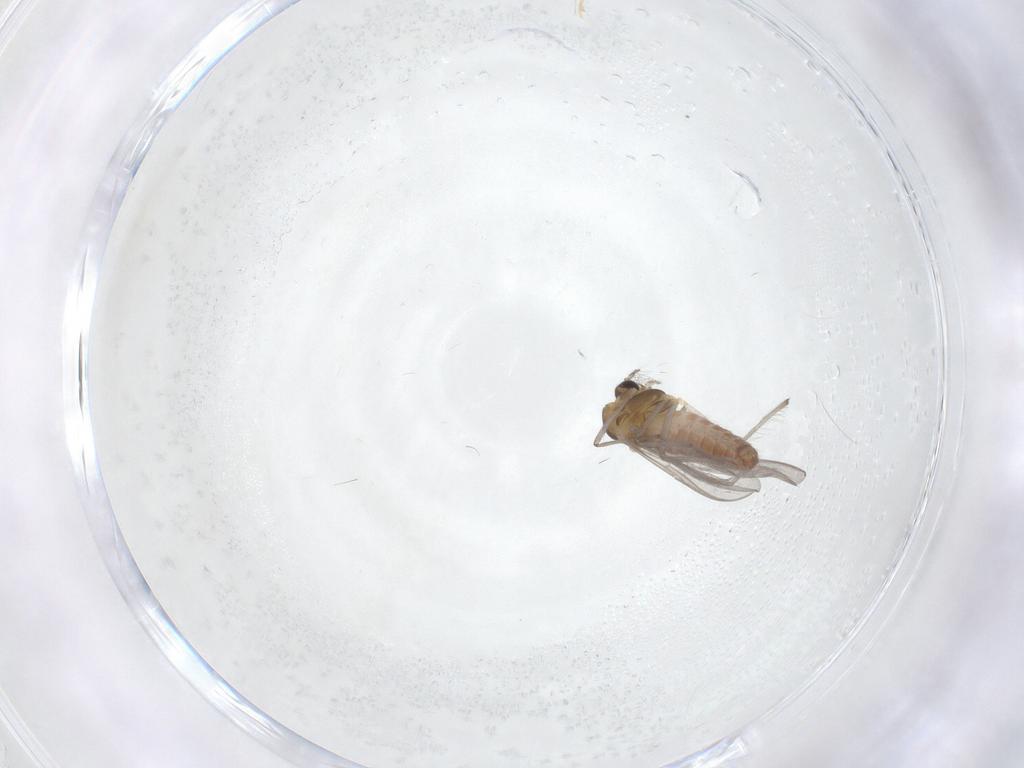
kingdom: Animalia
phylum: Arthropoda
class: Insecta
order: Diptera
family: Chironomidae
